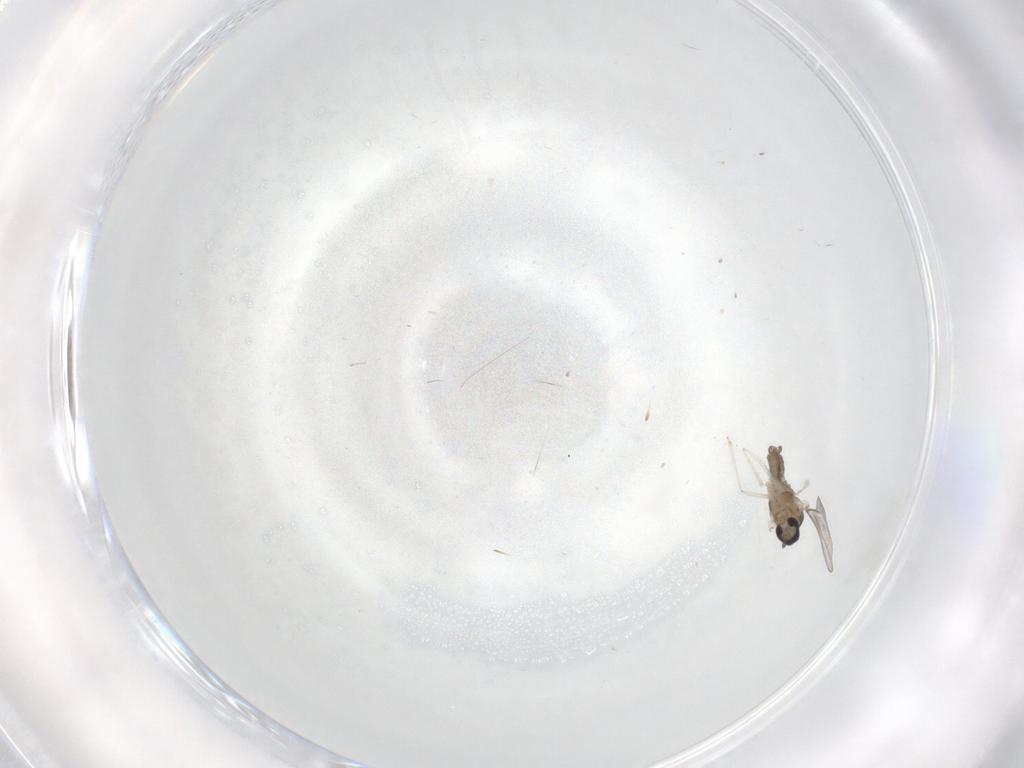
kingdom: Animalia
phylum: Arthropoda
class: Insecta
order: Diptera
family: Cecidomyiidae
